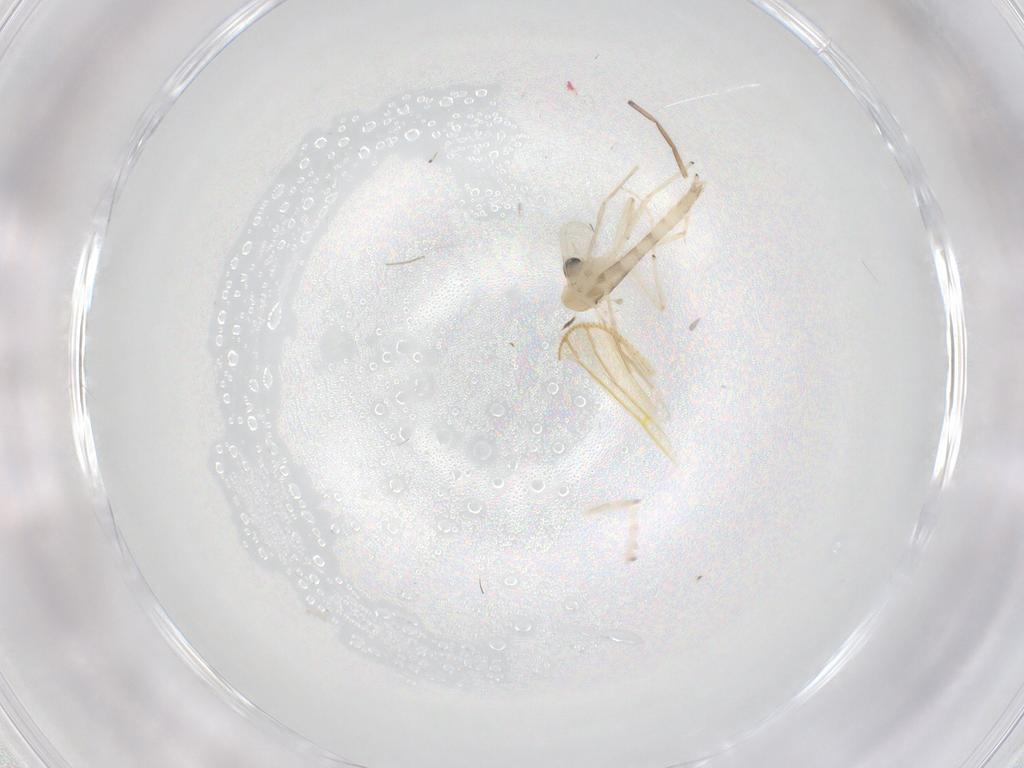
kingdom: Animalia
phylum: Arthropoda
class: Insecta
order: Diptera
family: Chironomidae
